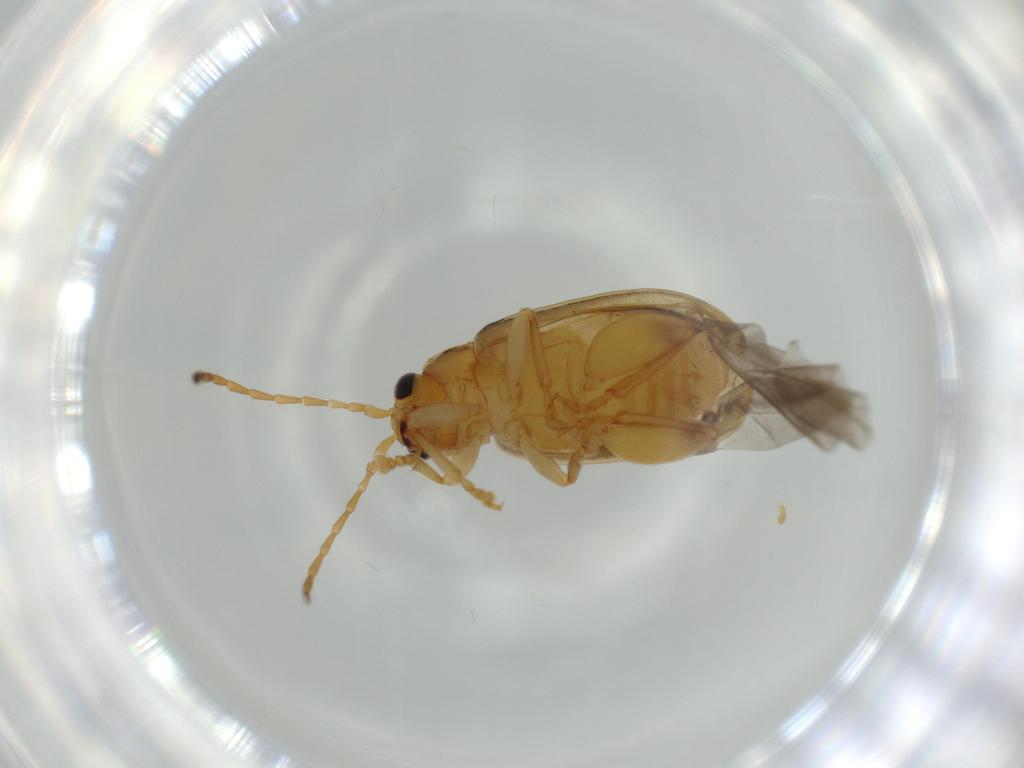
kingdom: Animalia
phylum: Arthropoda
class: Insecta
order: Coleoptera
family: Chrysomelidae
